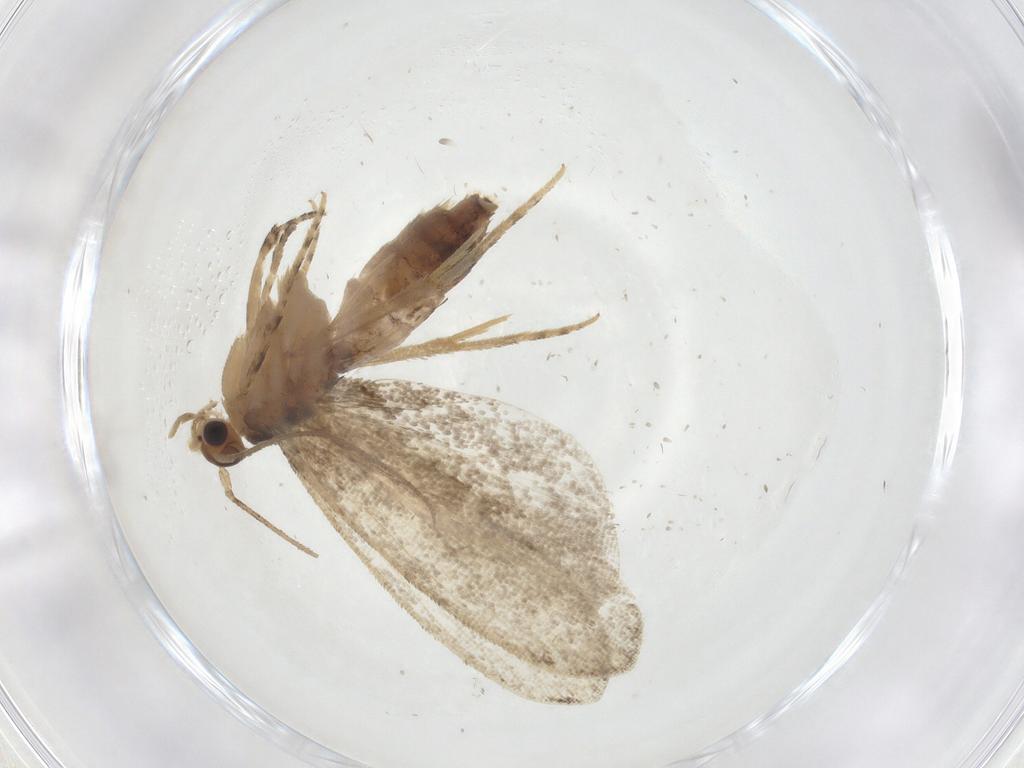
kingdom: Animalia
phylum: Arthropoda
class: Insecta
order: Lepidoptera
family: Tineidae
